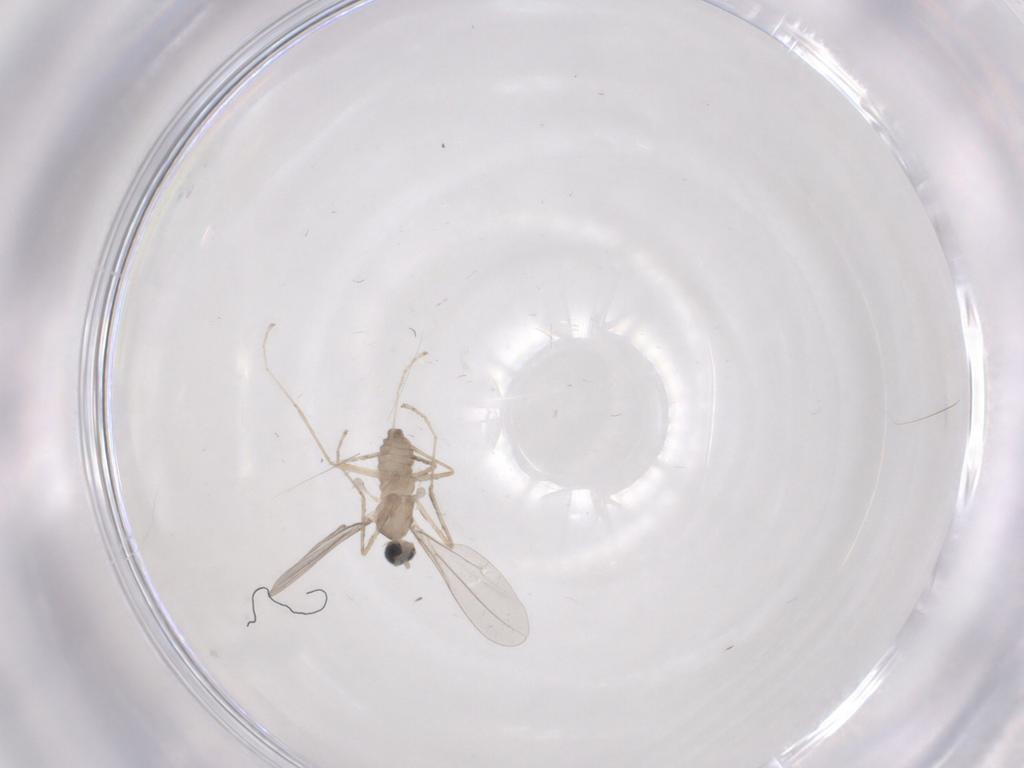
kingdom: Animalia
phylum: Arthropoda
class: Insecta
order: Diptera
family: Cecidomyiidae
